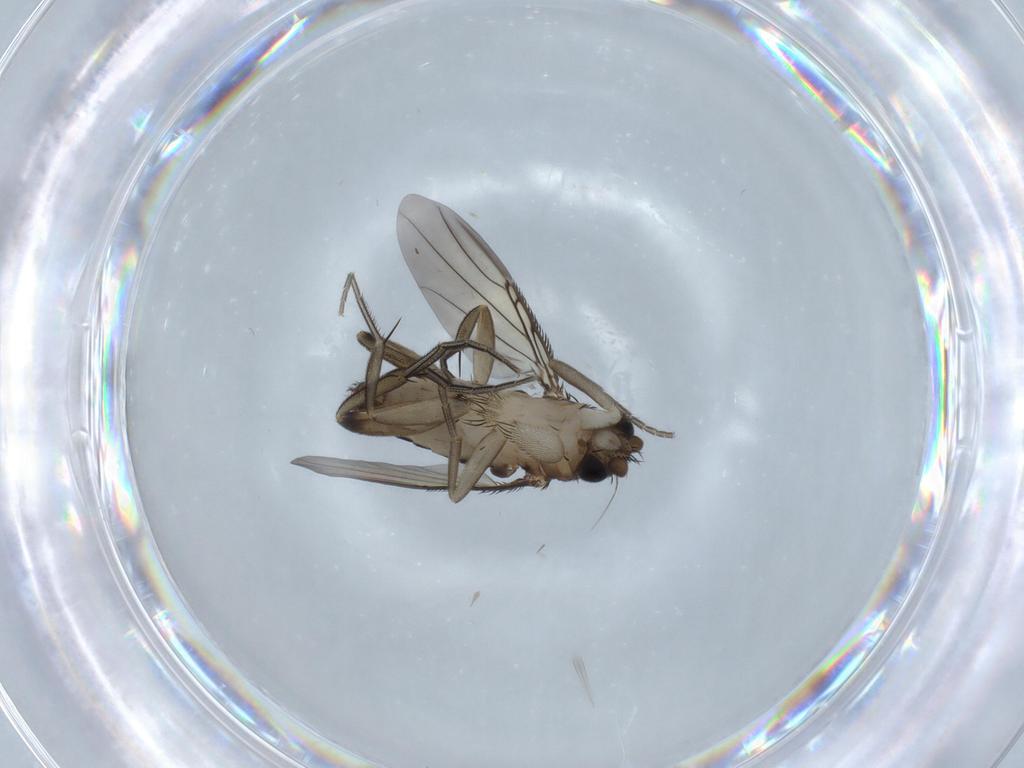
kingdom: Animalia
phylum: Arthropoda
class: Insecta
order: Diptera
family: Phoridae
